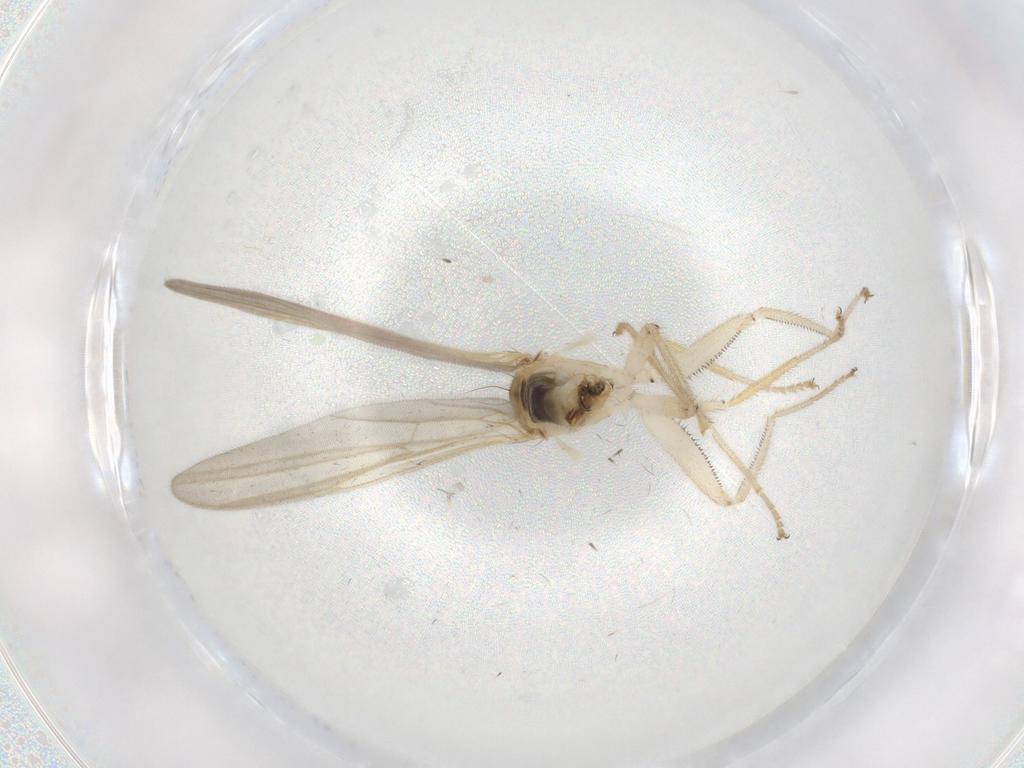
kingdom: Animalia
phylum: Arthropoda
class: Insecta
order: Diptera
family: Hybotidae
